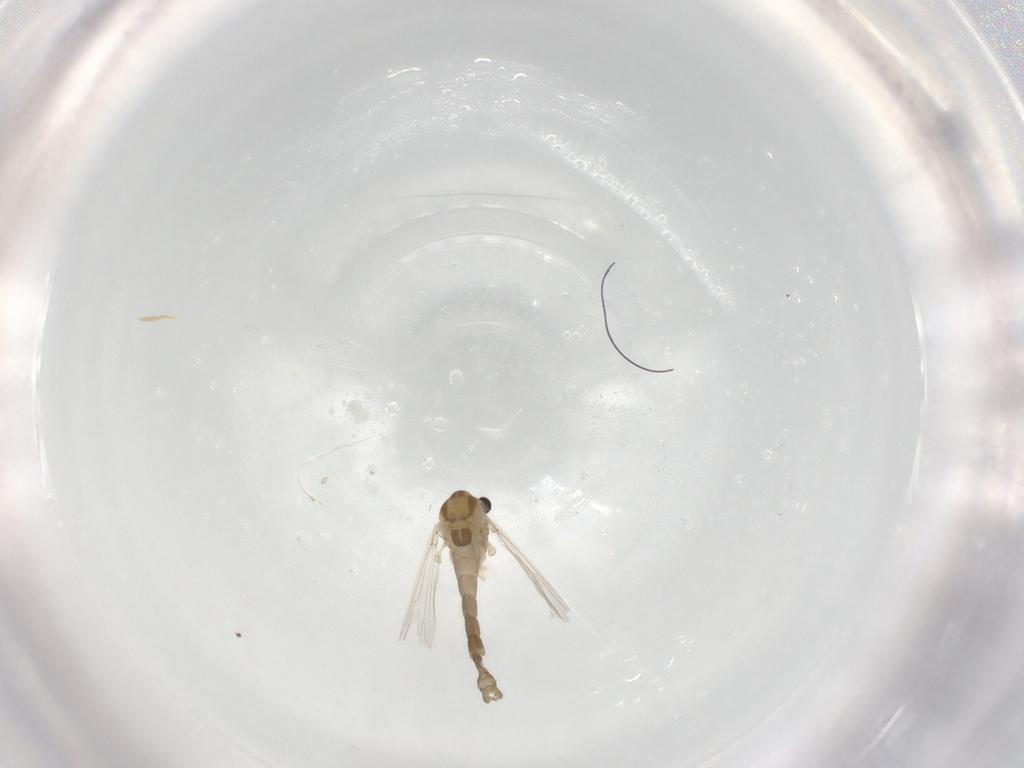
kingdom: Animalia
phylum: Arthropoda
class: Insecta
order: Diptera
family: Chironomidae
